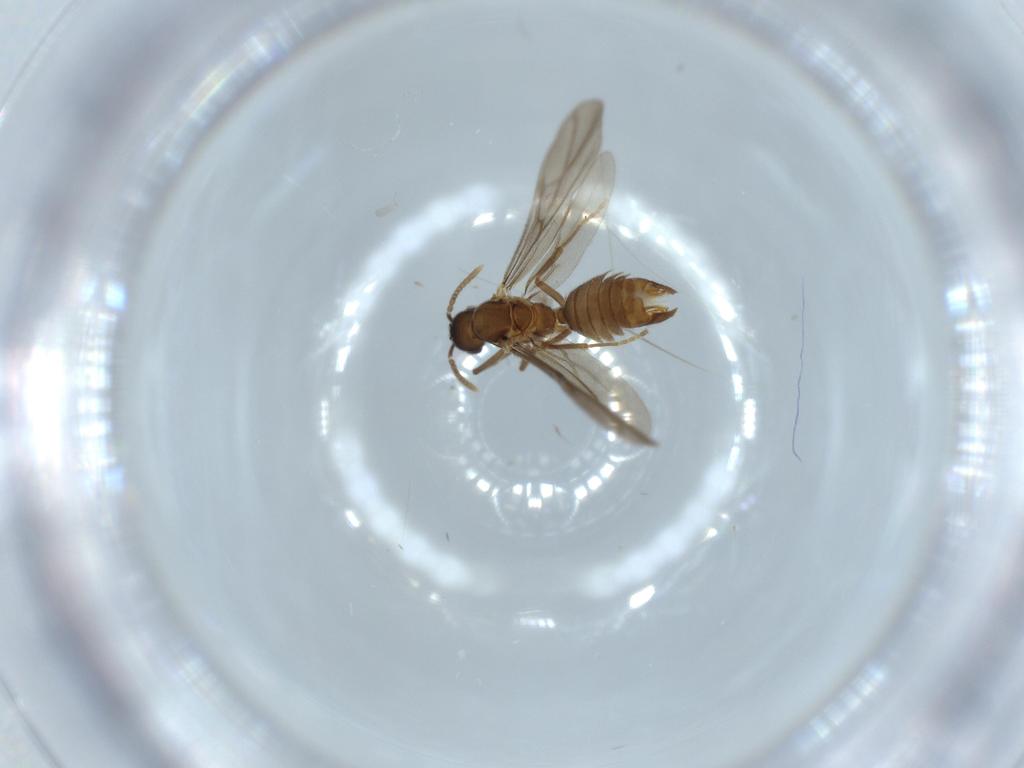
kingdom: Animalia
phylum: Arthropoda
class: Insecta
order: Hymenoptera
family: Formicidae
